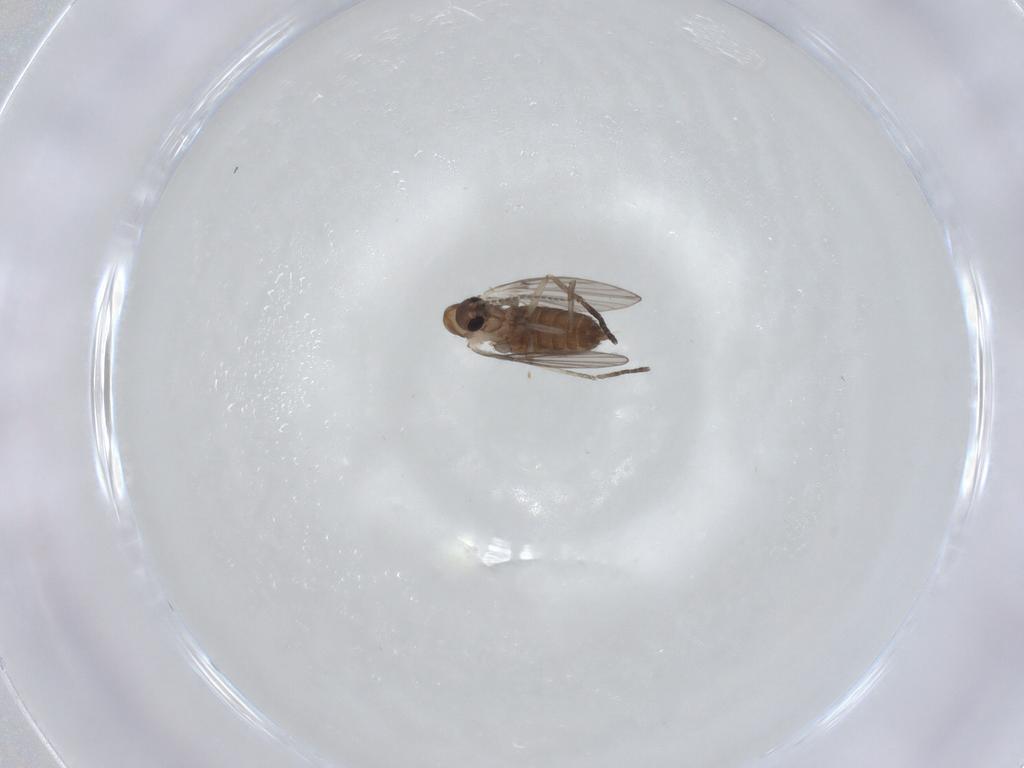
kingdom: Animalia
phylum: Arthropoda
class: Insecta
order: Diptera
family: Psychodidae
